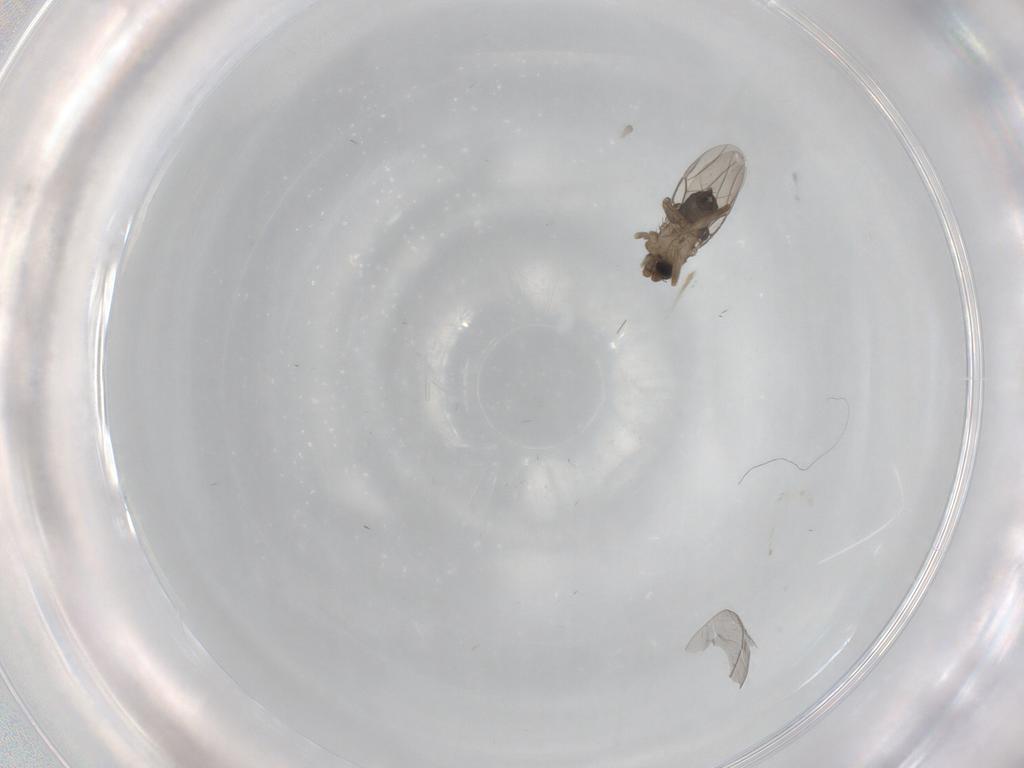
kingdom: Animalia
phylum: Arthropoda
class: Insecta
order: Diptera
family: Phoridae
